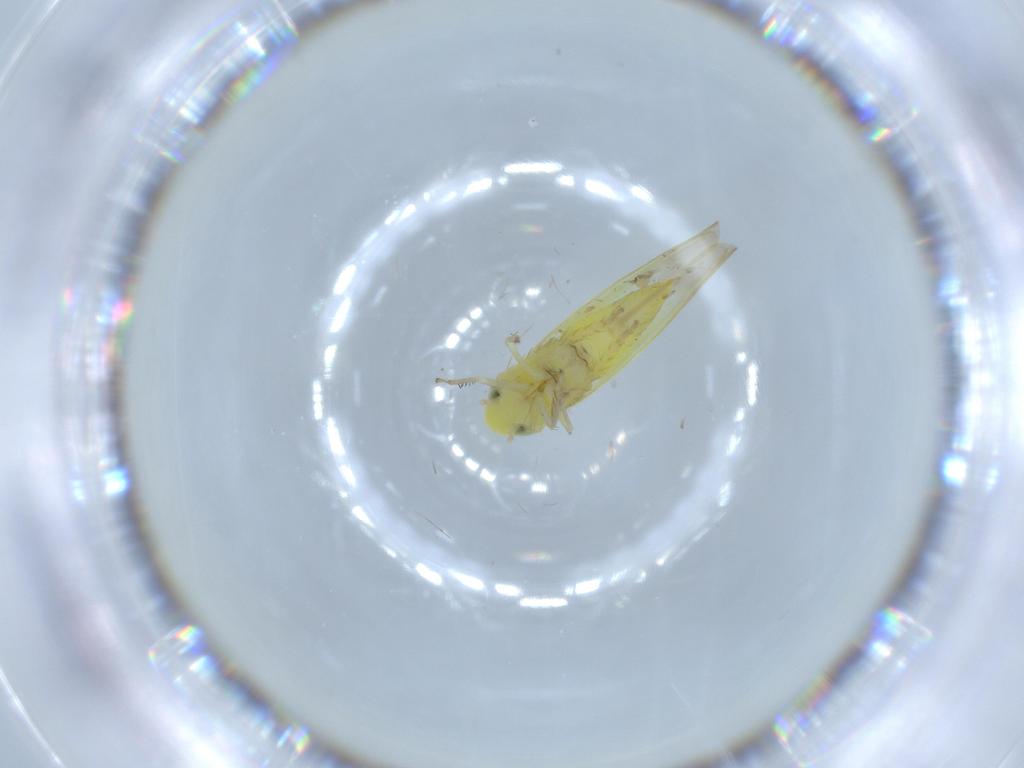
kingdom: Animalia
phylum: Arthropoda
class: Insecta
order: Hemiptera
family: Cicadellidae
